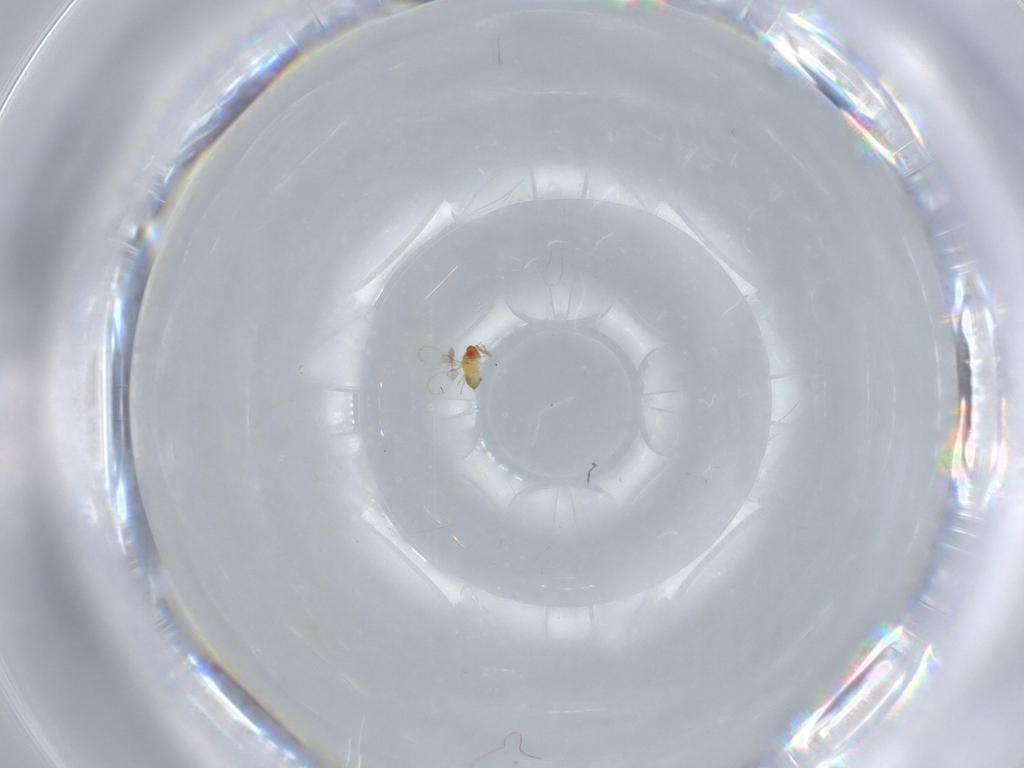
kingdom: Animalia
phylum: Arthropoda
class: Insecta
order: Hymenoptera
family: Trichogrammatidae
